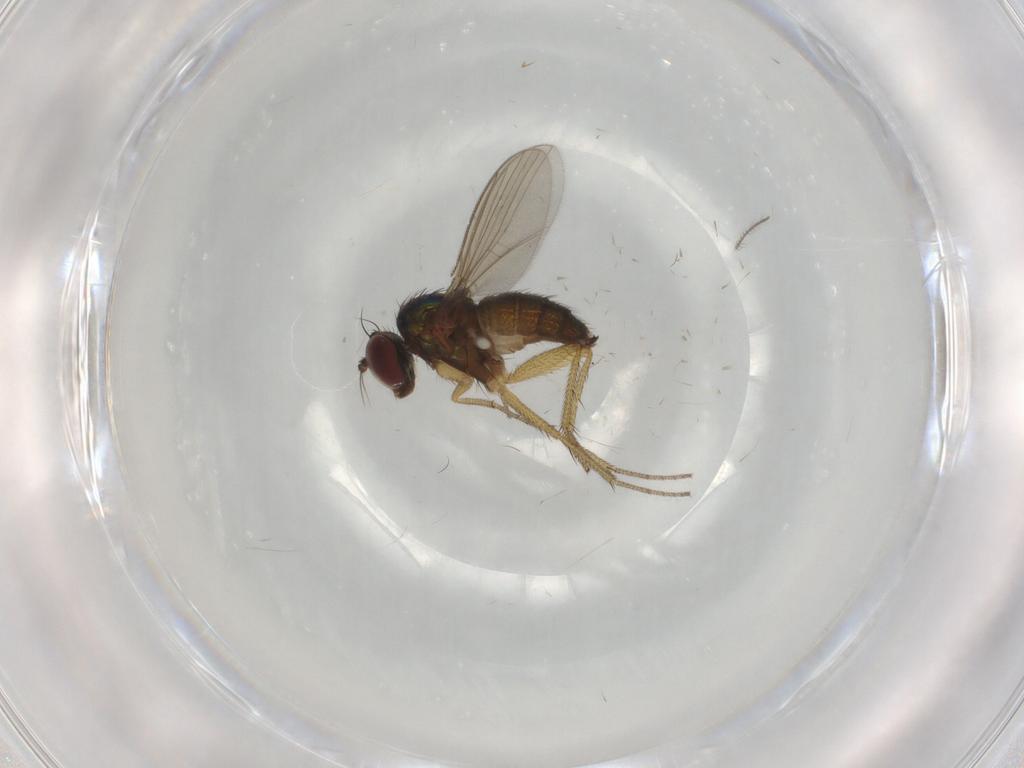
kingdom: Animalia
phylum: Arthropoda
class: Insecta
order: Diptera
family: Dolichopodidae
